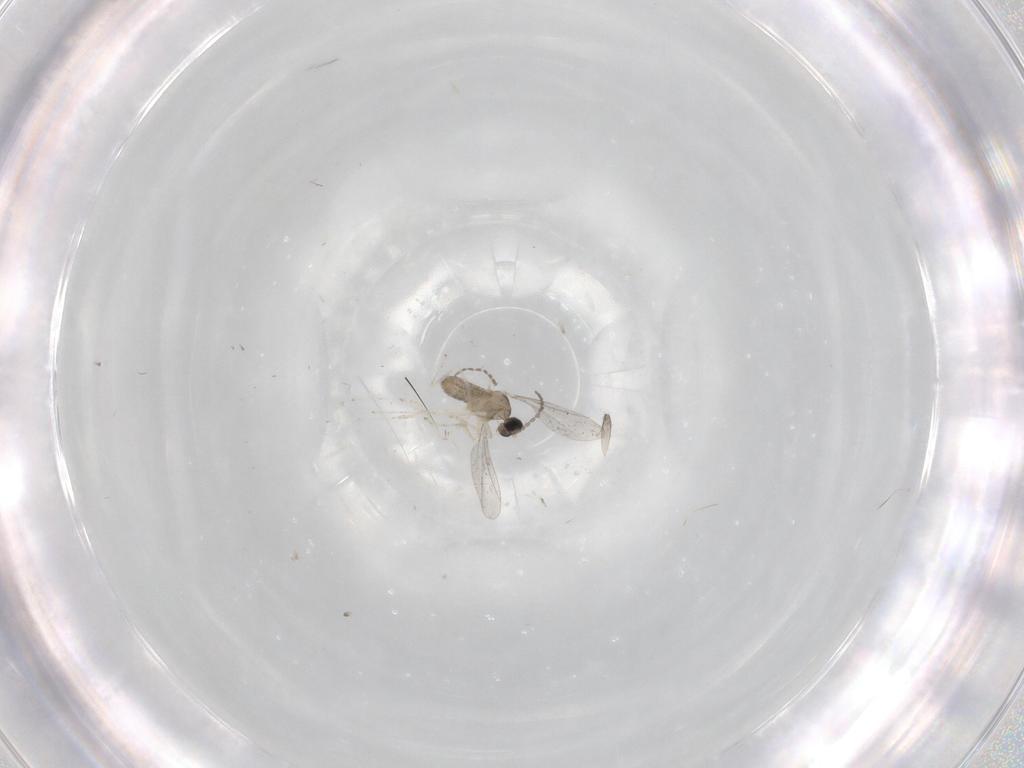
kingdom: Animalia
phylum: Arthropoda
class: Insecta
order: Diptera
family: Cecidomyiidae
